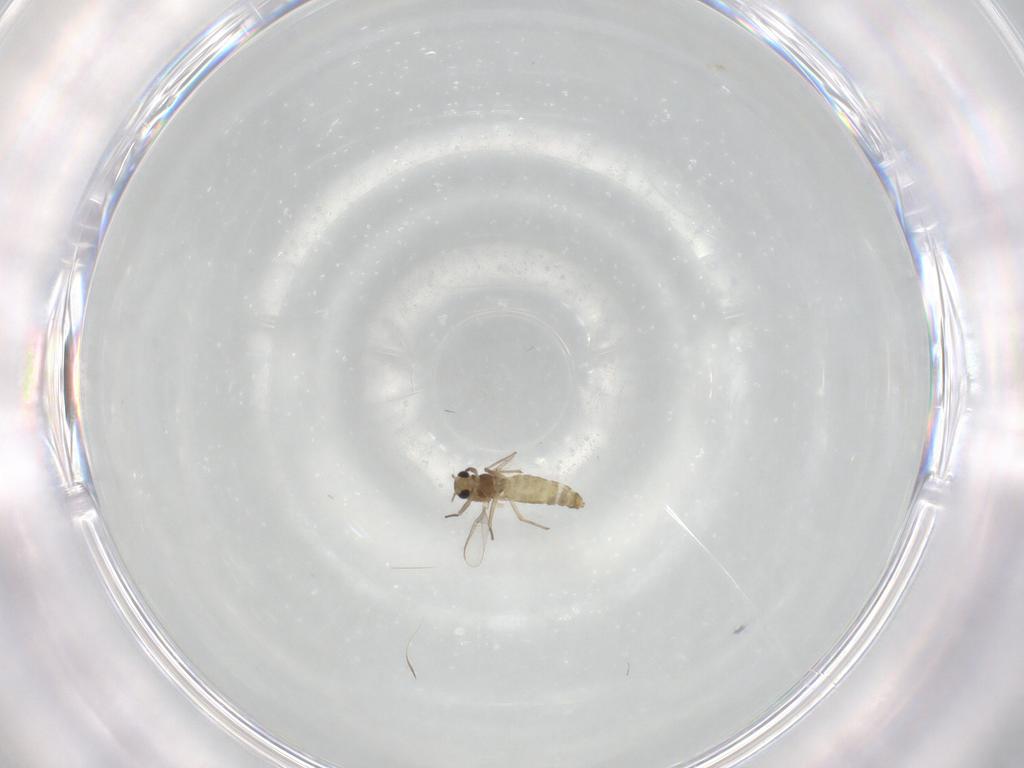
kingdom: Animalia
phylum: Arthropoda
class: Insecta
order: Diptera
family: Chironomidae
